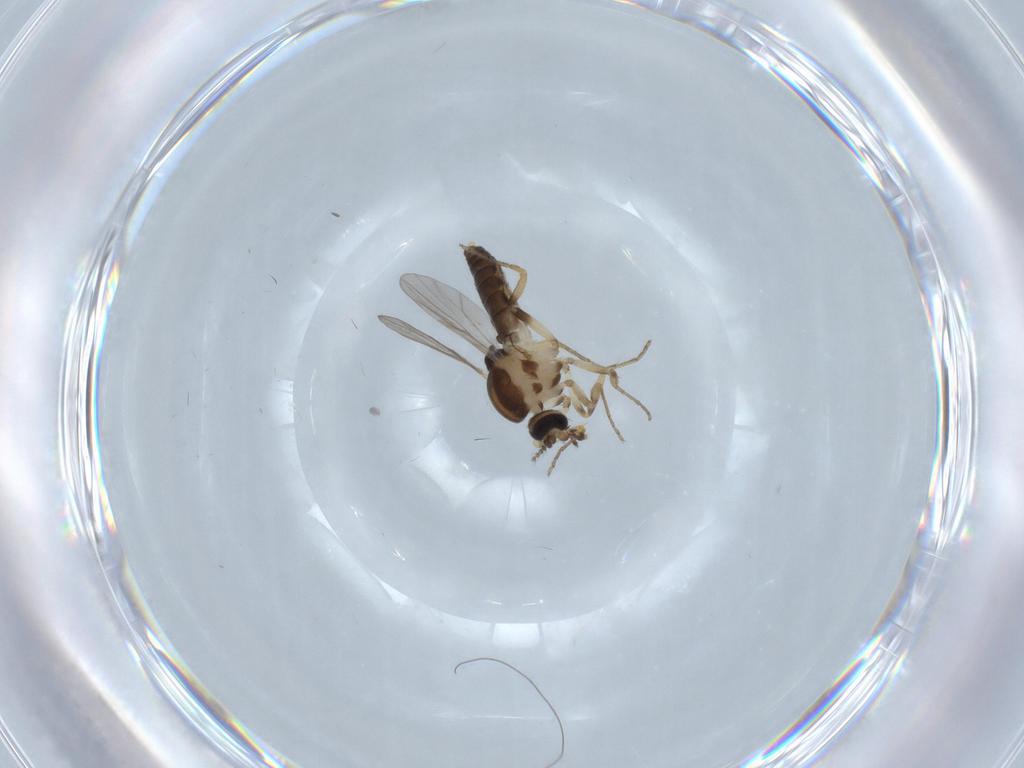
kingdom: Animalia
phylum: Arthropoda
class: Insecta
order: Diptera
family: Ceratopogonidae
